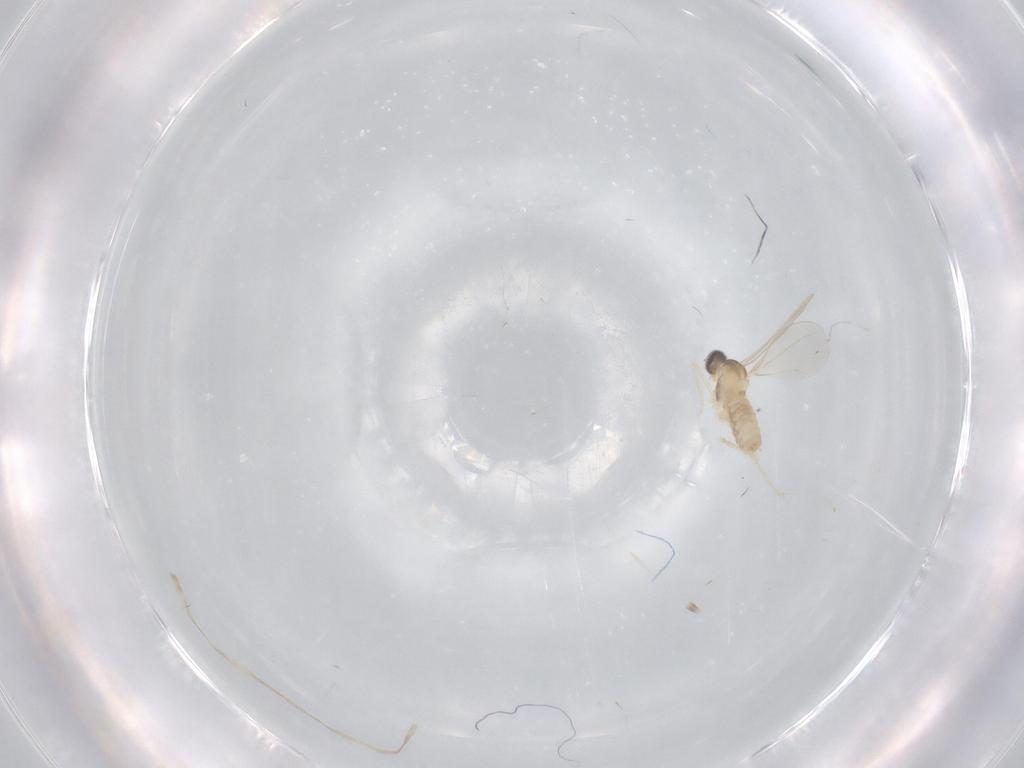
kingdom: Animalia
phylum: Arthropoda
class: Insecta
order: Diptera
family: Cecidomyiidae
